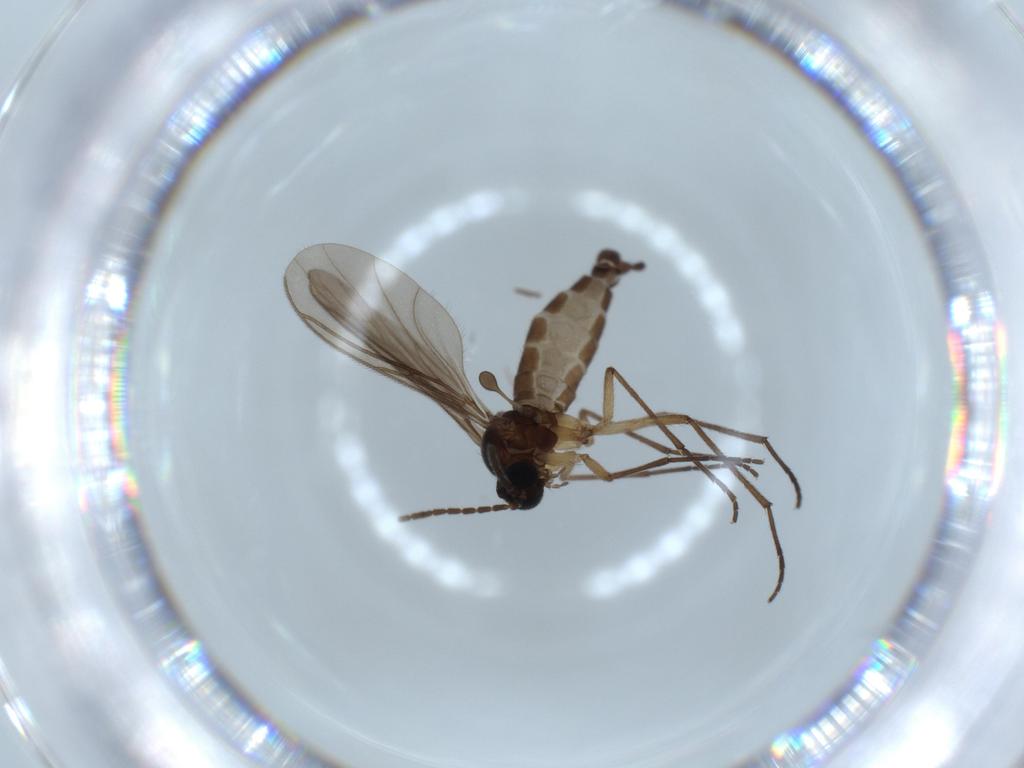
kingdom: Animalia
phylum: Arthropoda
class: Insecta
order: Diptera
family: Sciaridae
